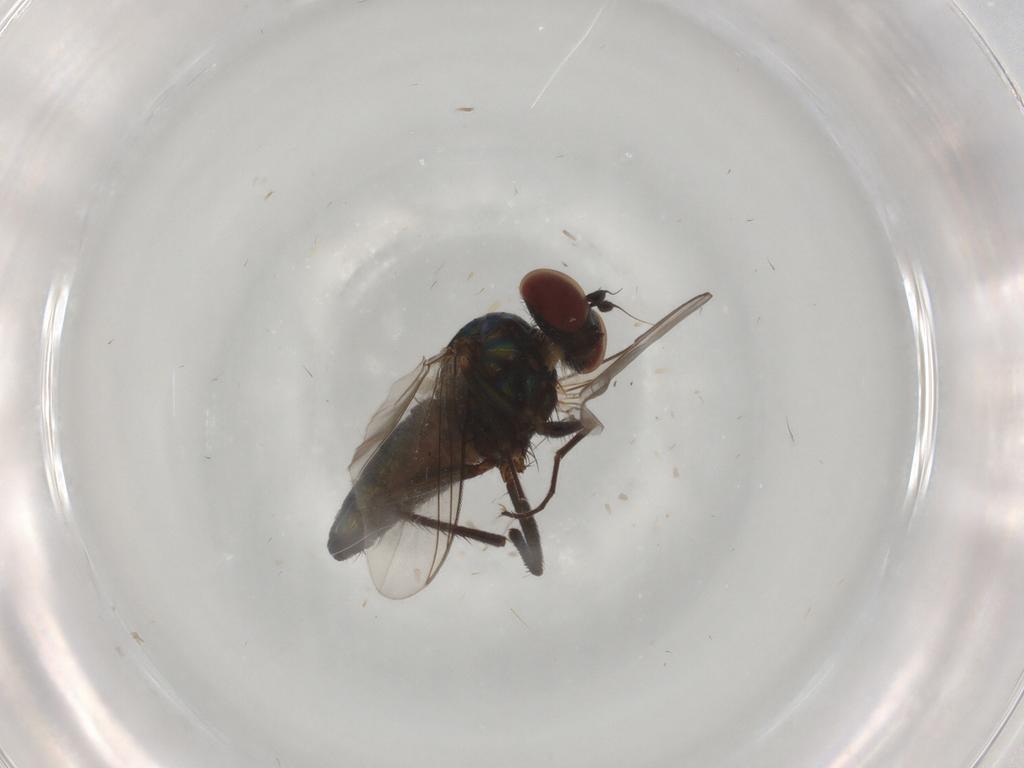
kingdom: Animalia
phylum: Arthropoda
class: Insecta
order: Diptera
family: Dolichopodidae
